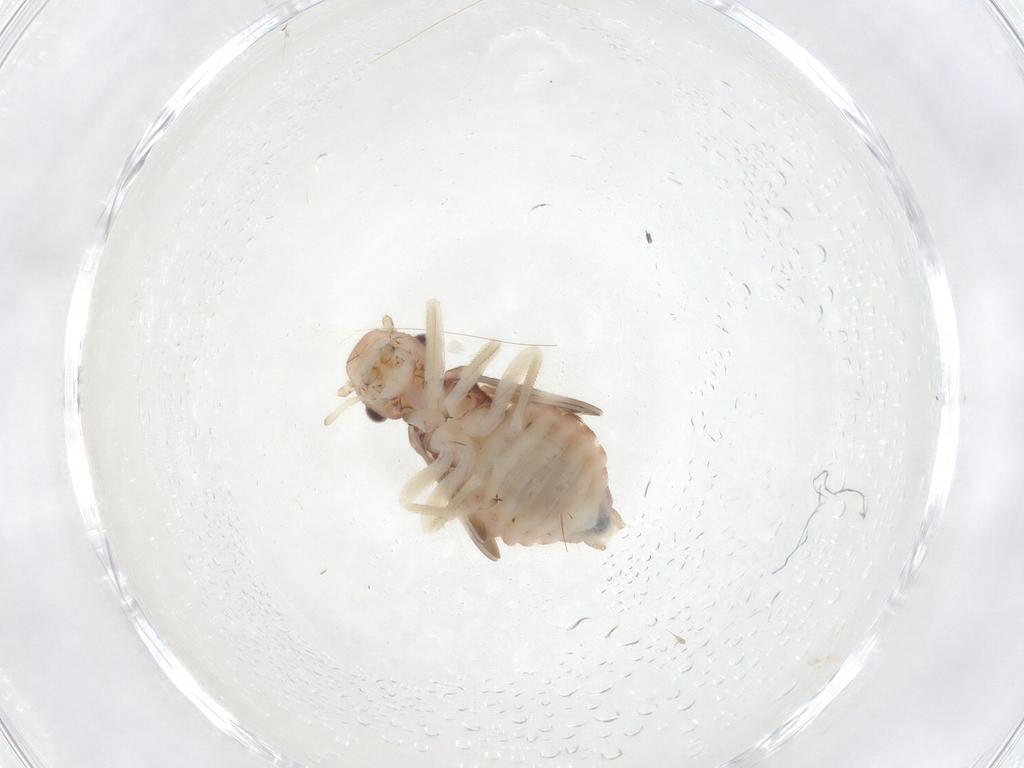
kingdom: Animalia
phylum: Arthropoda
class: Insecta
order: Psocodea
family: Amphipsocidae
